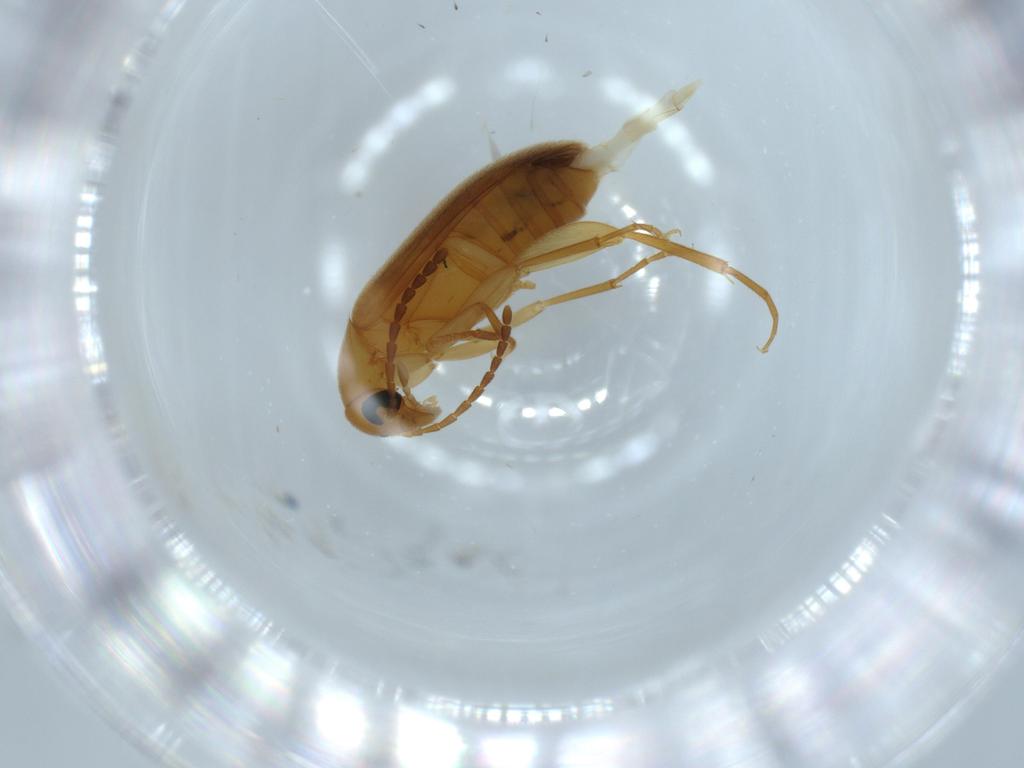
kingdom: Animalia
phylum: Arthropoda
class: Insecta
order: Coleoptera
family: Scraptiidae
